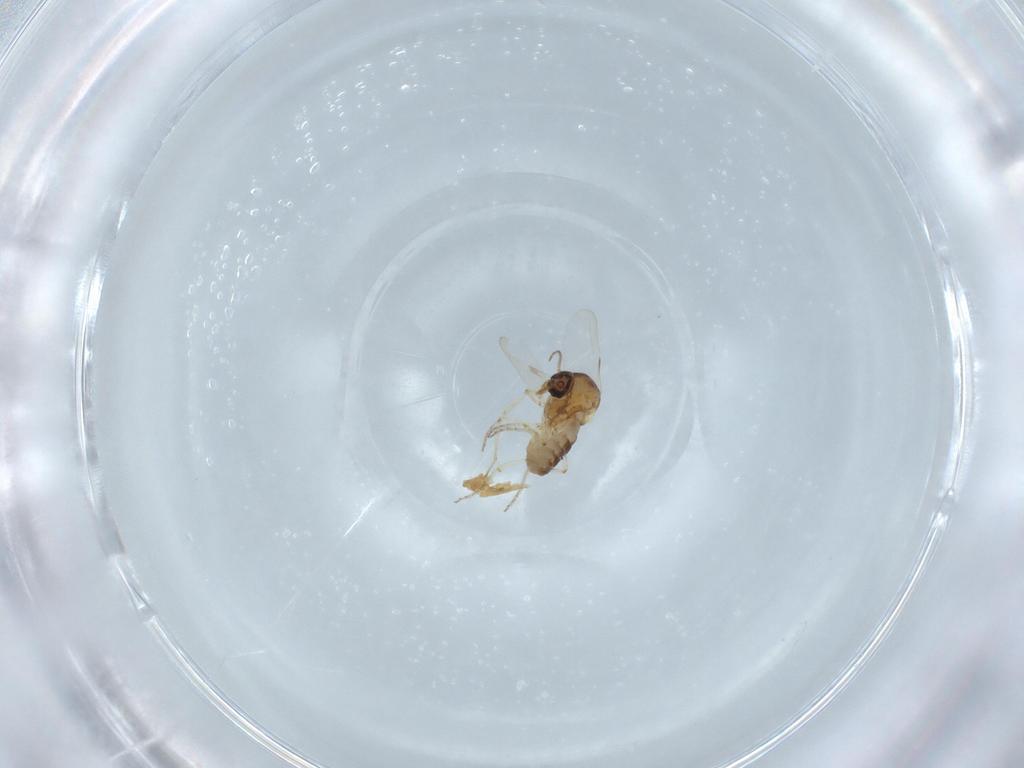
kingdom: Animalia
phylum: Arthropoda
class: Insecta
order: Diptera
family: Ceratopogonidae
